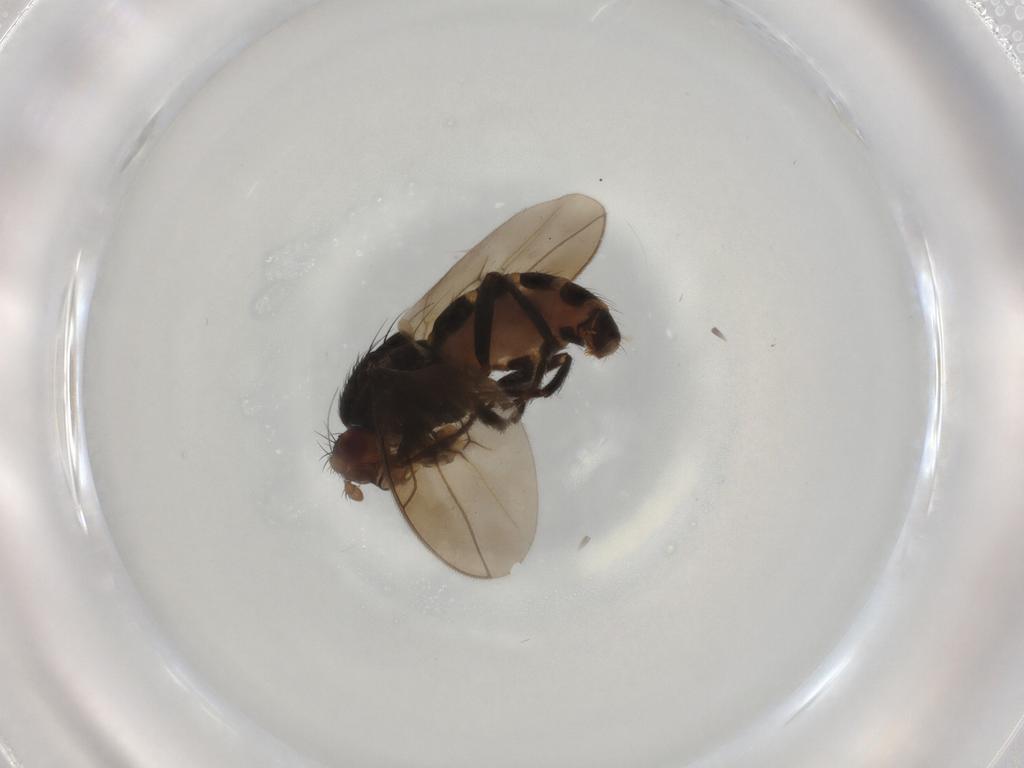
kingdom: Animalia
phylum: Arthropoda
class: Insecta
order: Diptera
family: Sphaeroceridae
